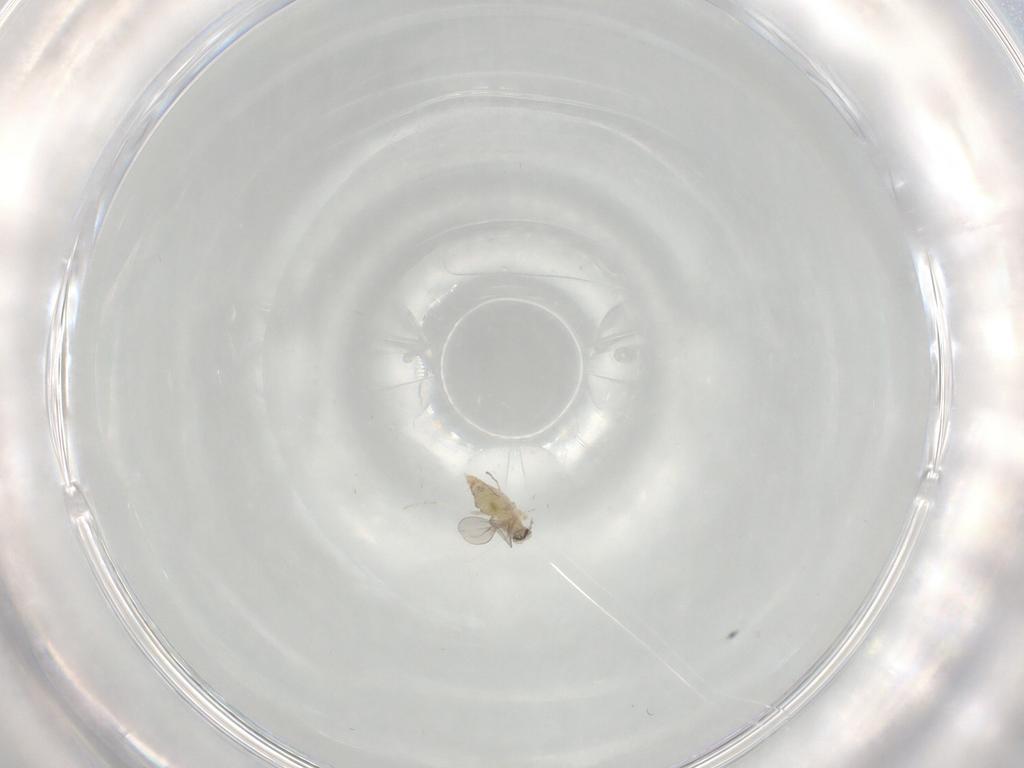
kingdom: Animalia
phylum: Arthropoda
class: Insecta
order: Diptera
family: Cecidomyiidae
